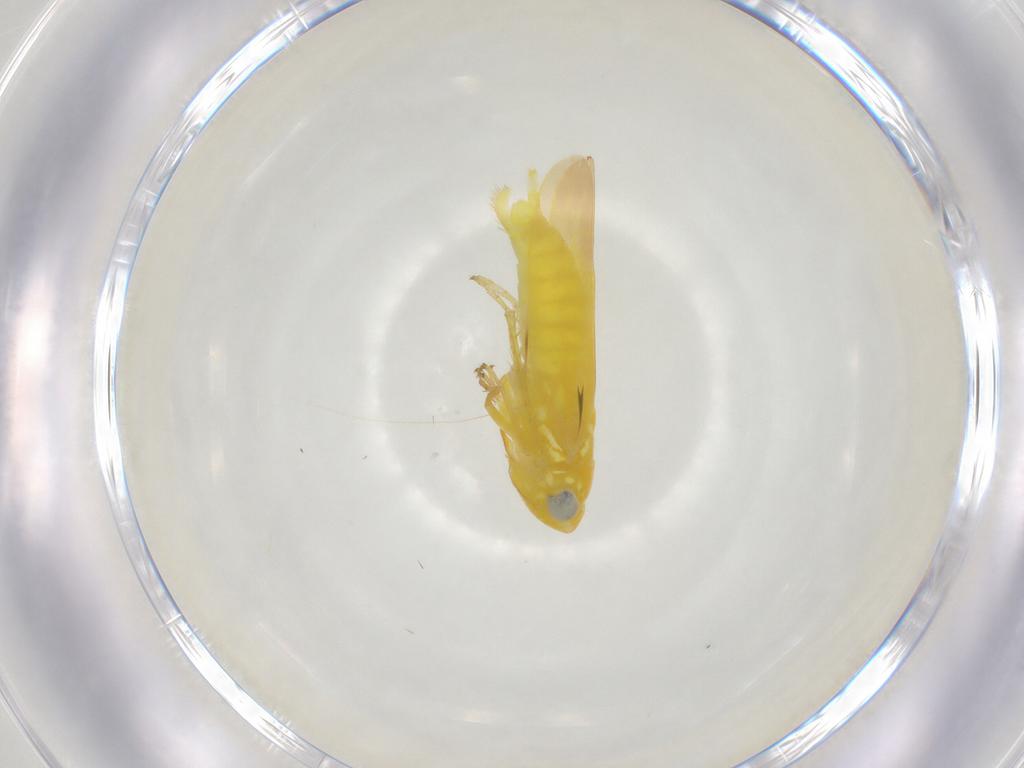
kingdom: Animalia
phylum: Arthropoda
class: Insecta
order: Hemiptera
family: Cicadellidae
